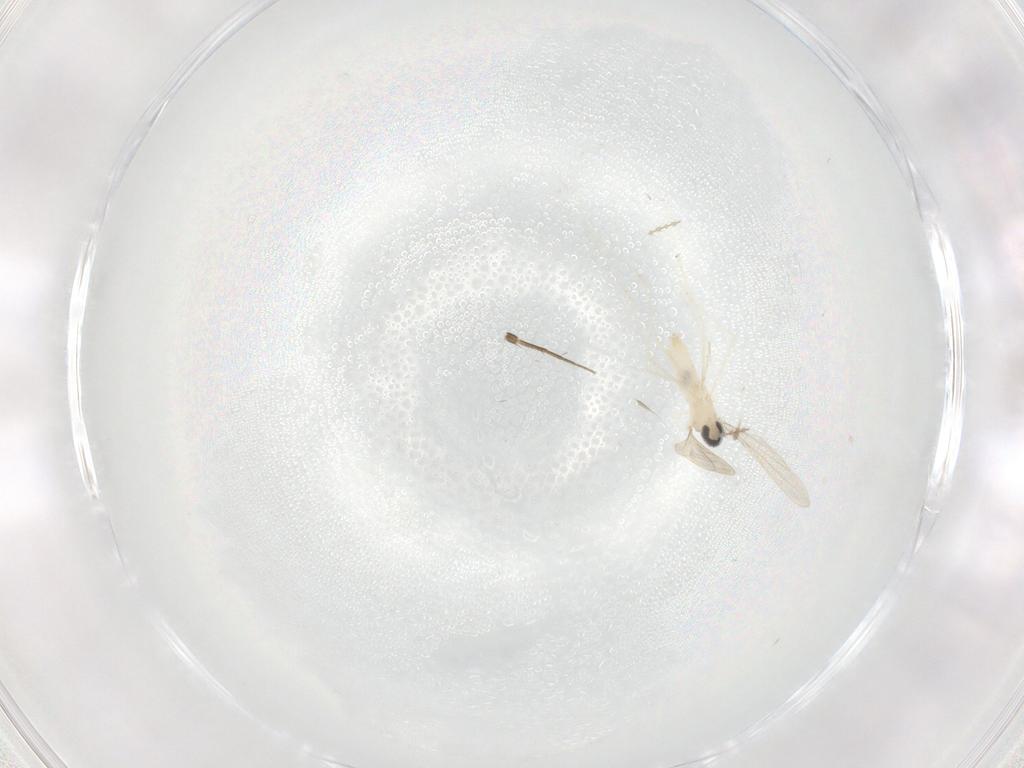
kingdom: Animalia
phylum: Arthropoda
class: Insecta
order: Diptera
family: Cecidomyiidae
